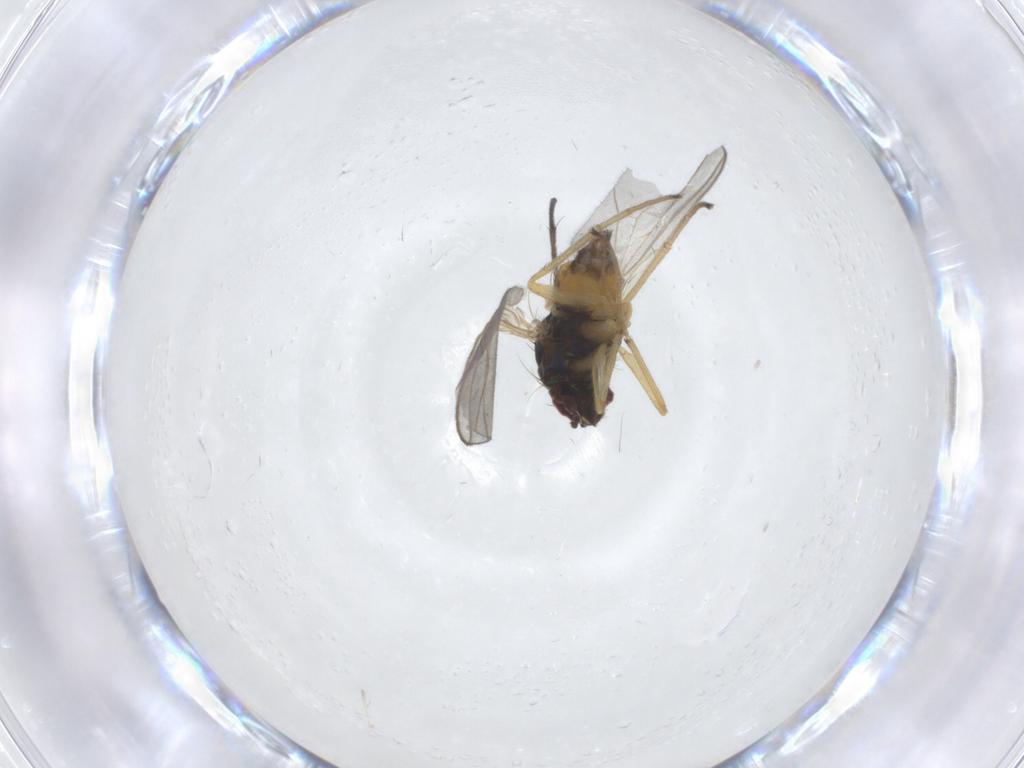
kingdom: Animalia
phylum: Arthropoda
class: Insecta
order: Diptera
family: Dolichopodidae
